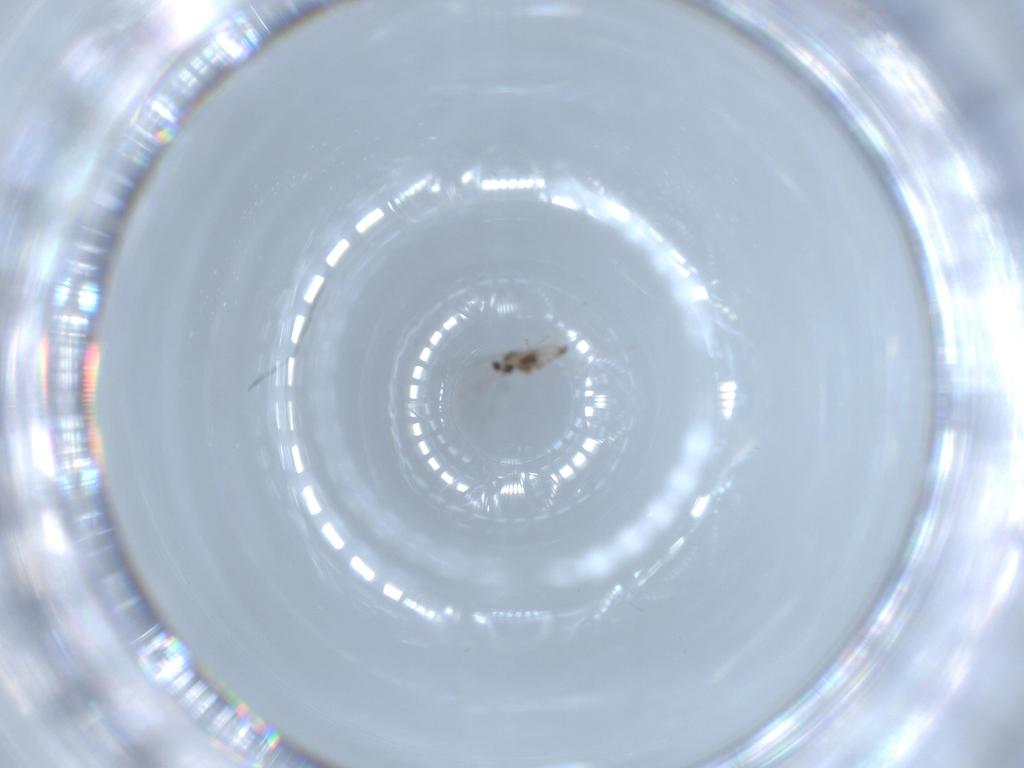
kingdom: Animalia
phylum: Arthropoda
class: Insecta
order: Diptera
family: Cecidomyiidae
